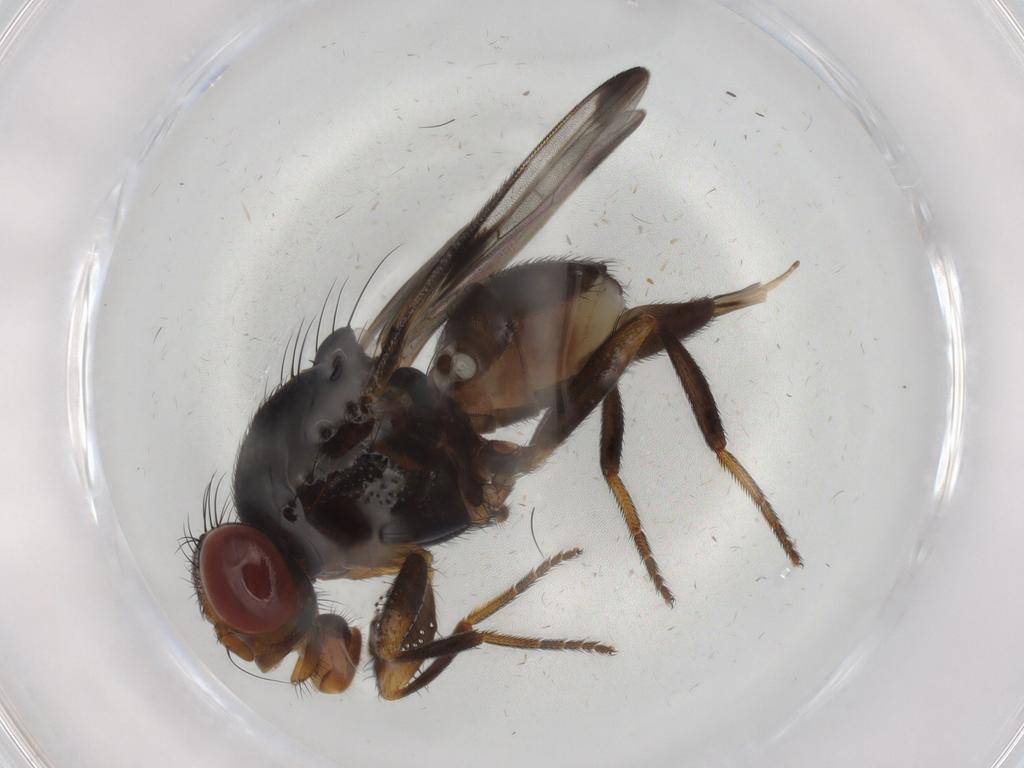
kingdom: Animalia
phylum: Arthropoda
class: Insecta
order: Diptera
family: Ulidiidae
